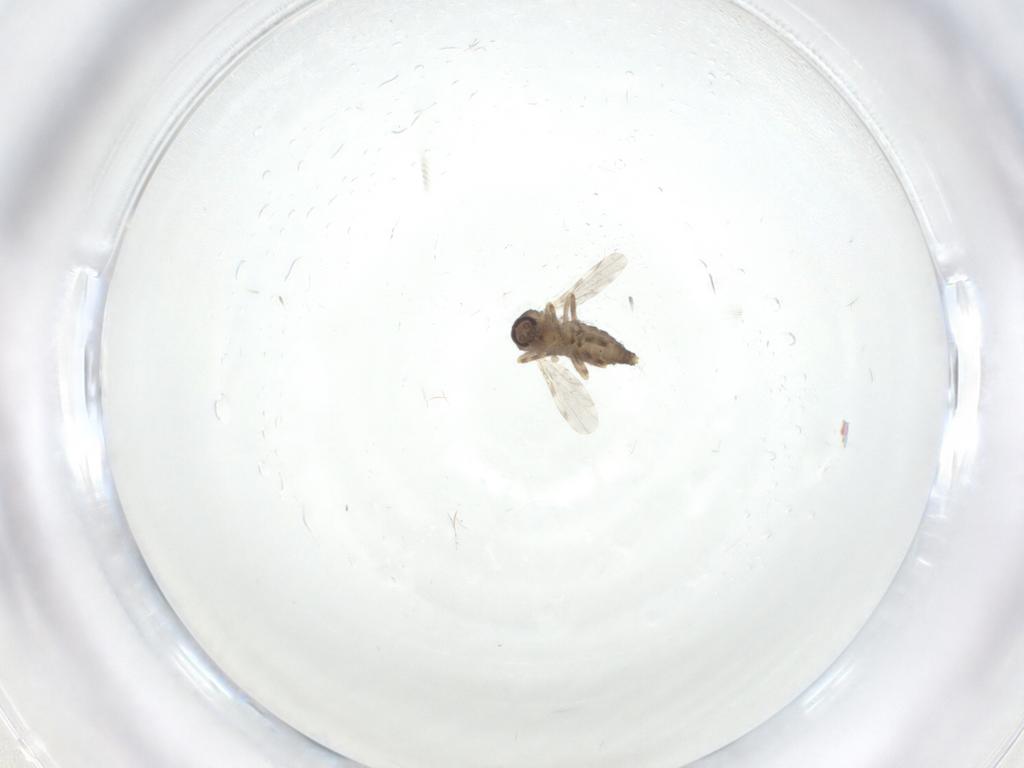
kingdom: Animalia
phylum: Arthropoda
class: Insecta
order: Diptera
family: Ceratopogonidae
